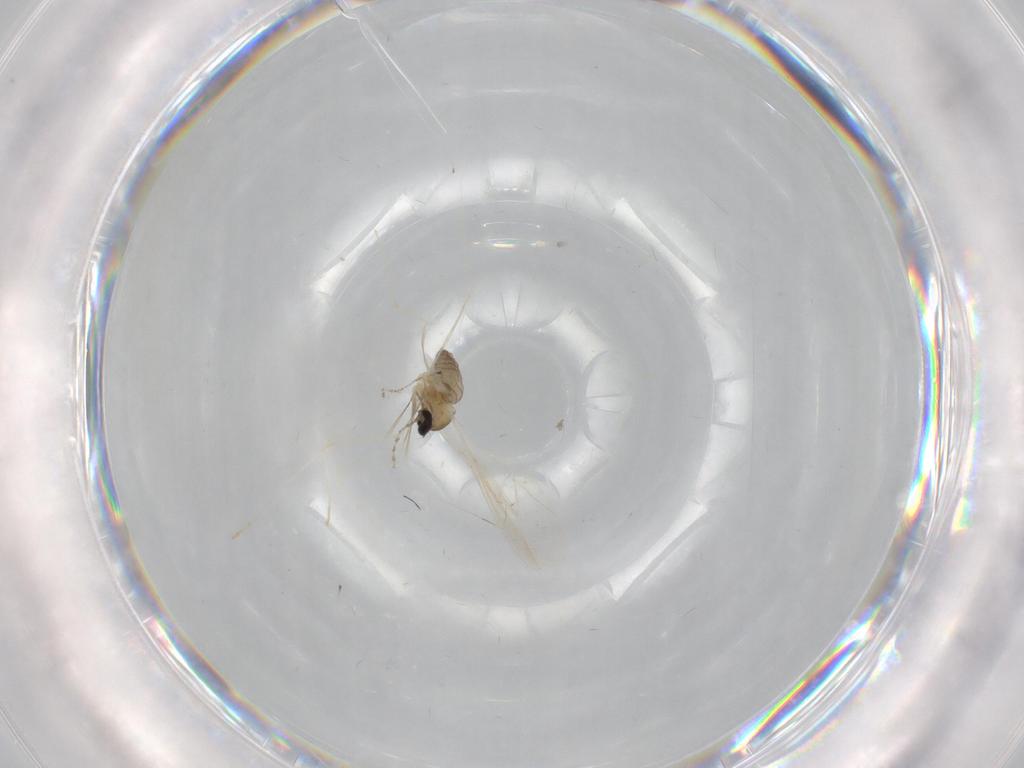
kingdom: Animalia
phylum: Arthropoda
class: Insecta
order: Diptera
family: Cecidomyiidae
